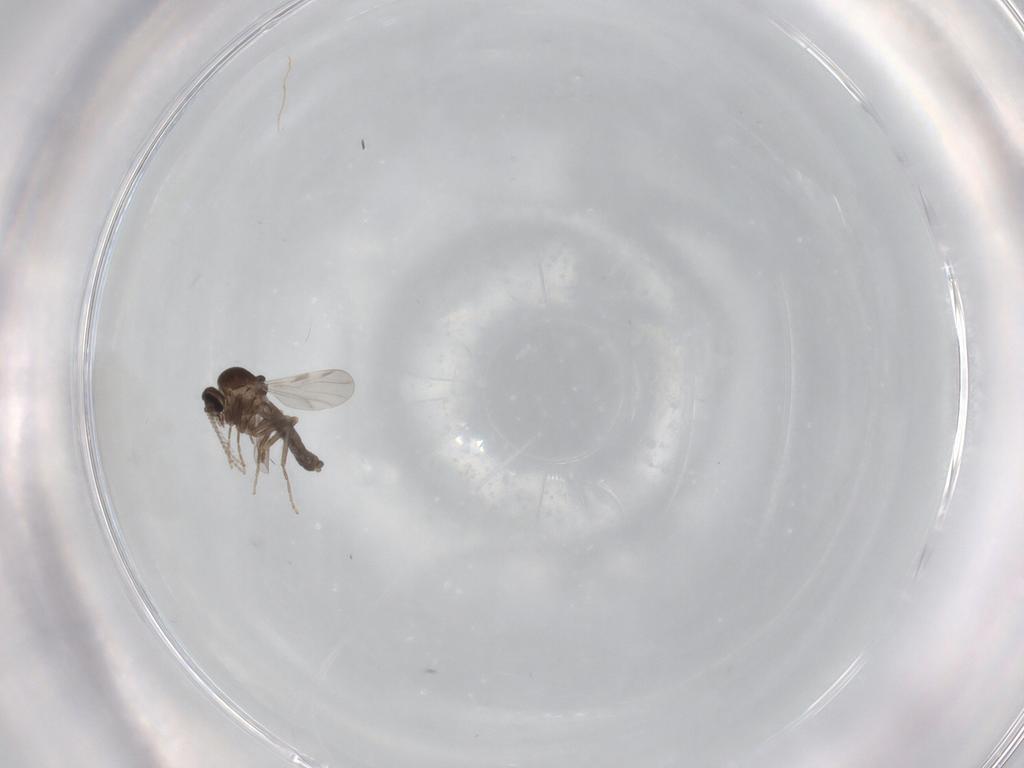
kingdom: Animalia
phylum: Arthropoda
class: Insecta
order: Diptera
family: Ceratopogonidae
